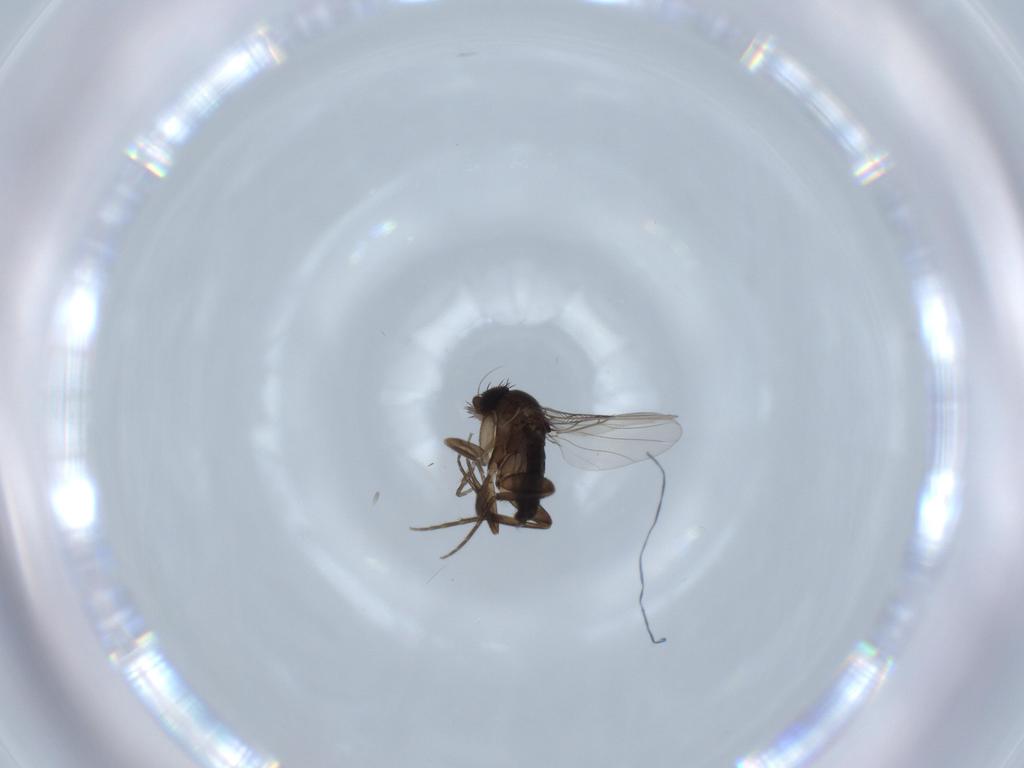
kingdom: Animalia
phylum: Arthropoda
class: Insecta
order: Diptera
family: Phoridae
